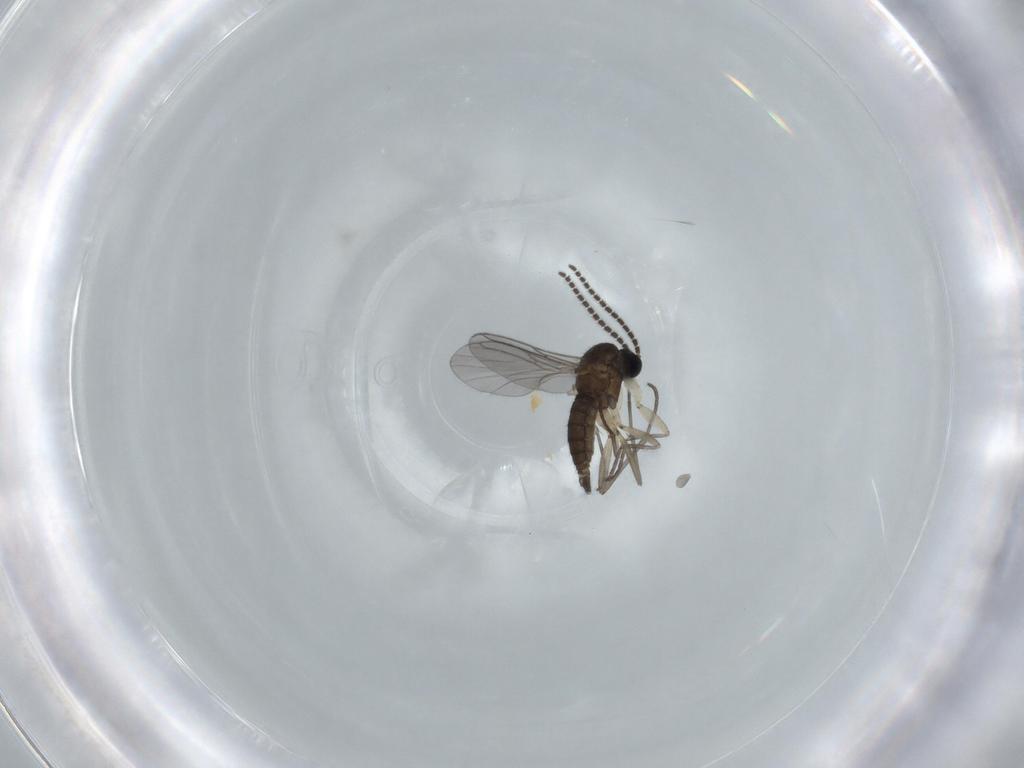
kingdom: Animalia
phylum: Arthropoda
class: Insecta
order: Diptera
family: Sciaridae
